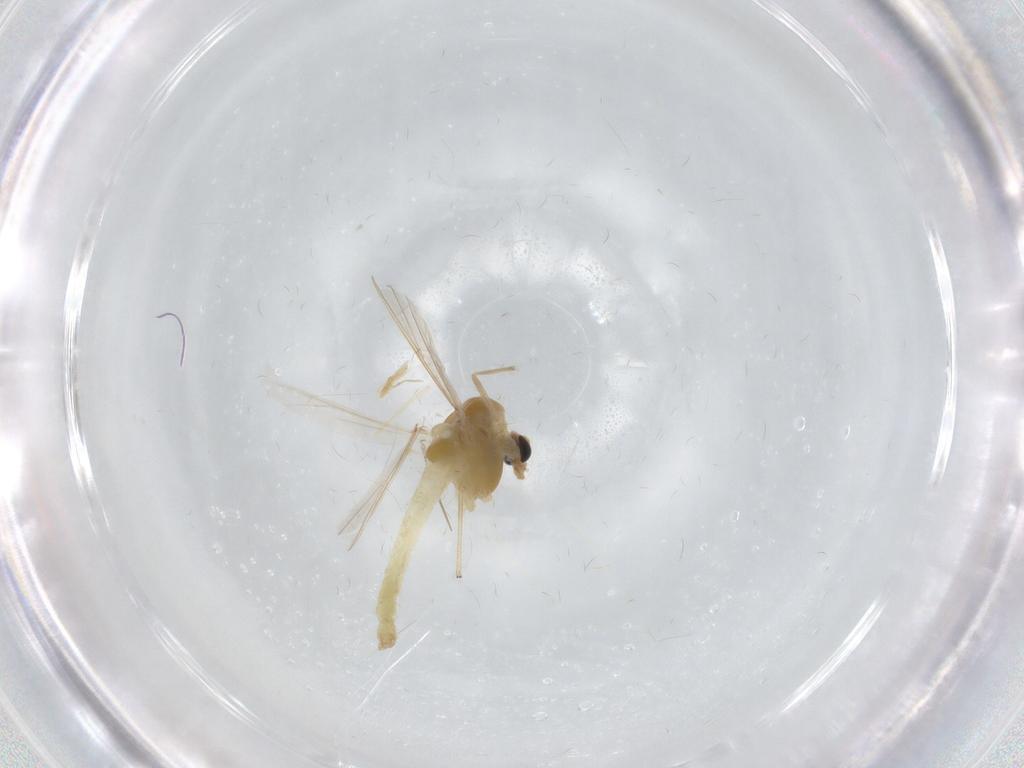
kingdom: Animalia
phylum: Arthropoda
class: Insecta
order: Diptera
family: Chironomidae
